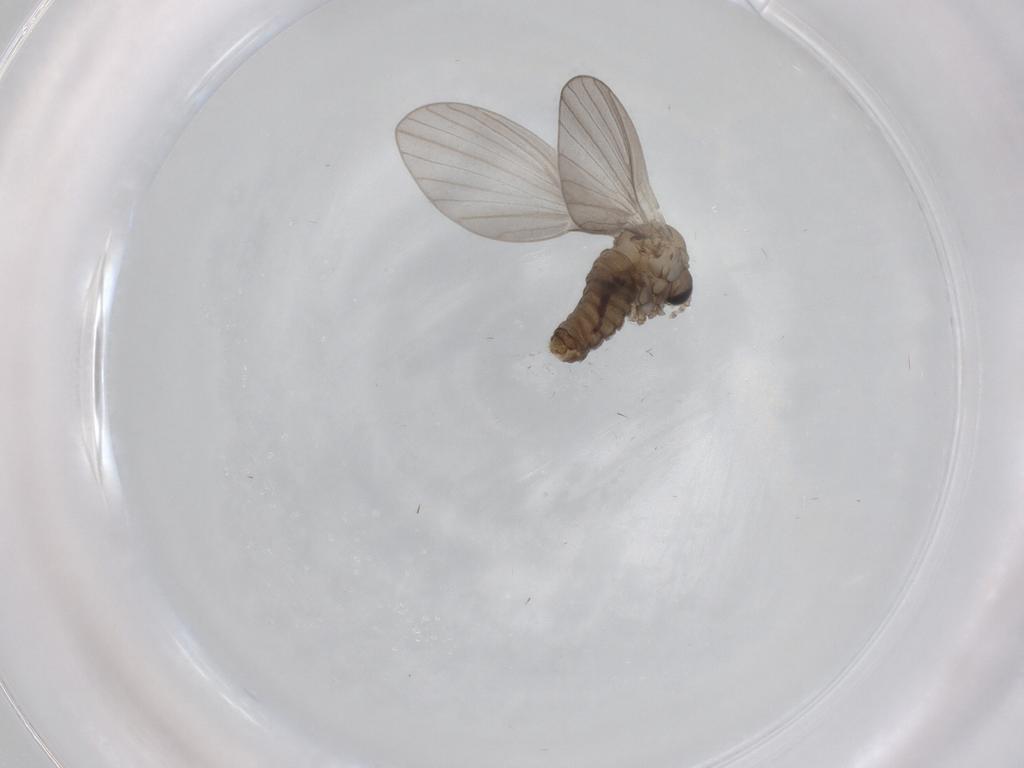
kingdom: Animalia
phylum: Arthropoda
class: Insecta
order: Diptera
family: Psychodidae
